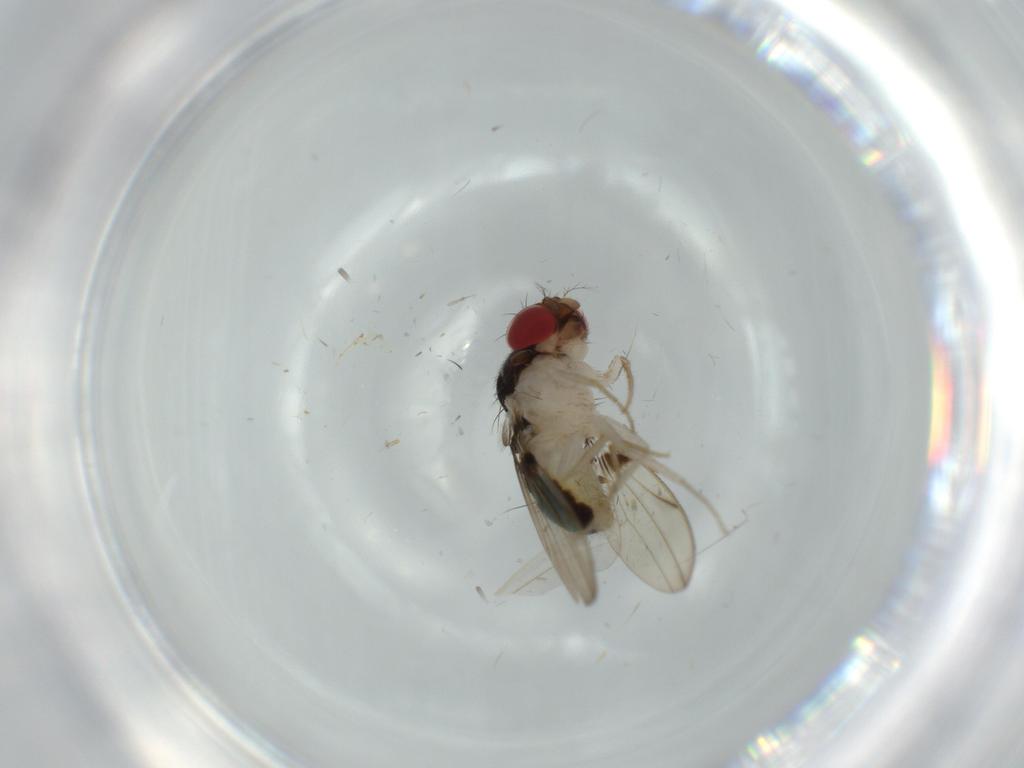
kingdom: Animalia
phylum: Arthropoda
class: Insecta
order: Diptera
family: Drosophilidae
